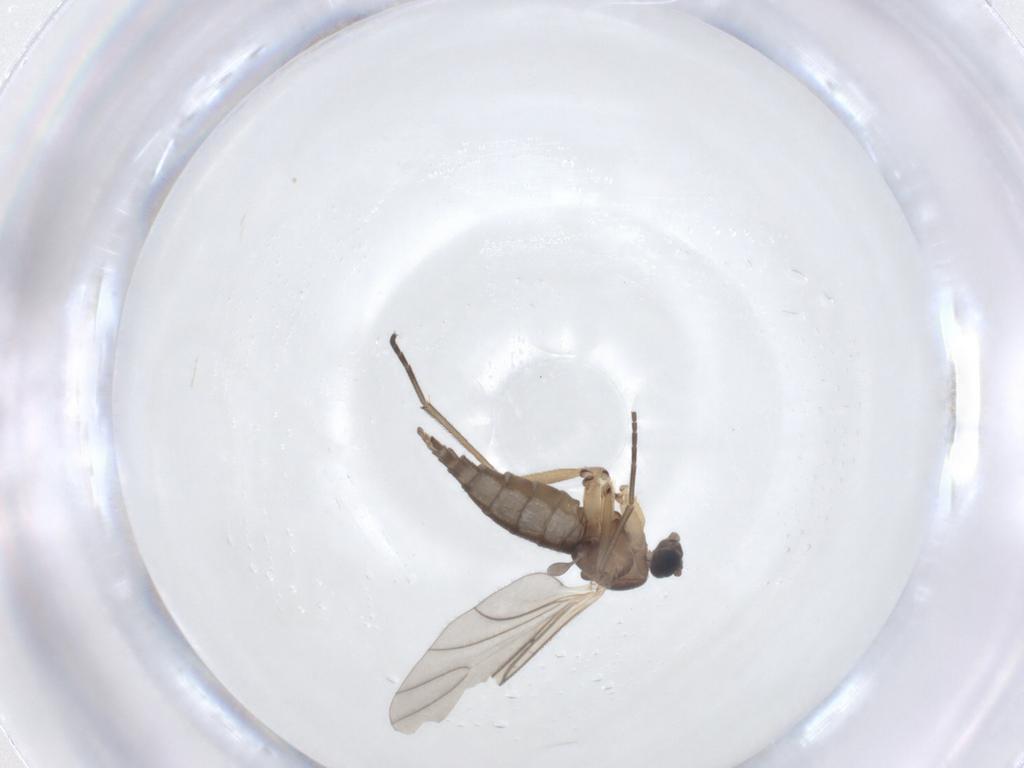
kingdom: Animalia
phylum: Arthropoda
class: Insecta
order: Diptera
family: Sciaridae
